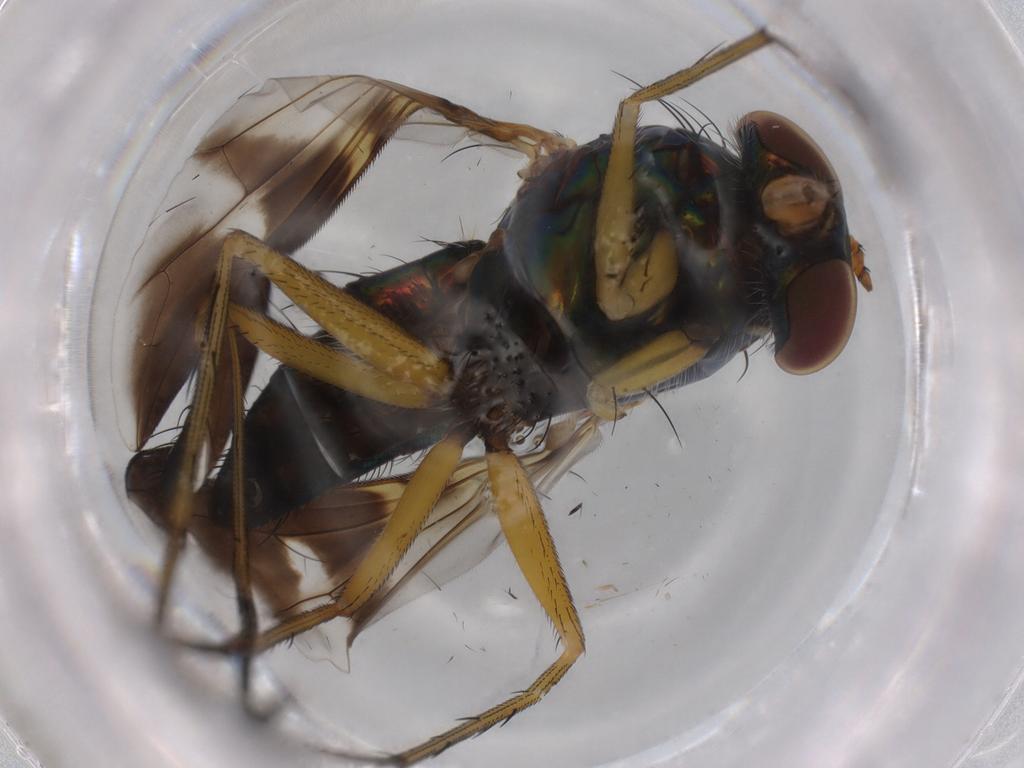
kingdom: Animalia
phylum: Arthropoda
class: Insecta
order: Diptera
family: Dolichopodidae
